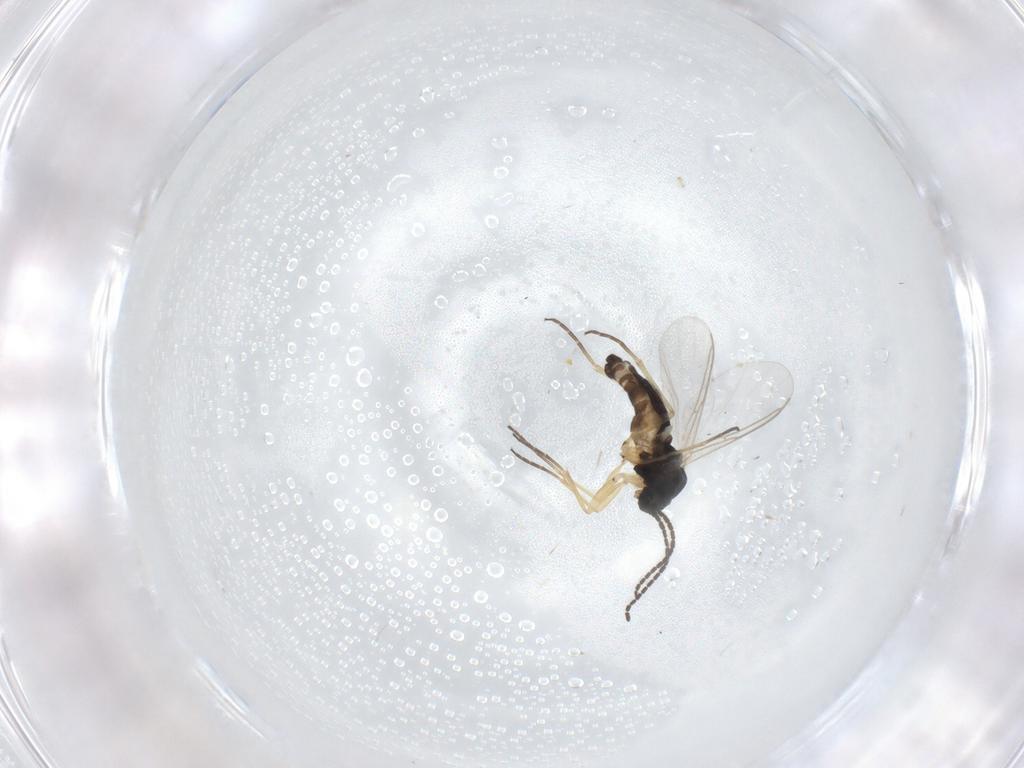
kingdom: Animalia
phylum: Arthropoda
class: Insecta
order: Diptera
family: Sciaridae
